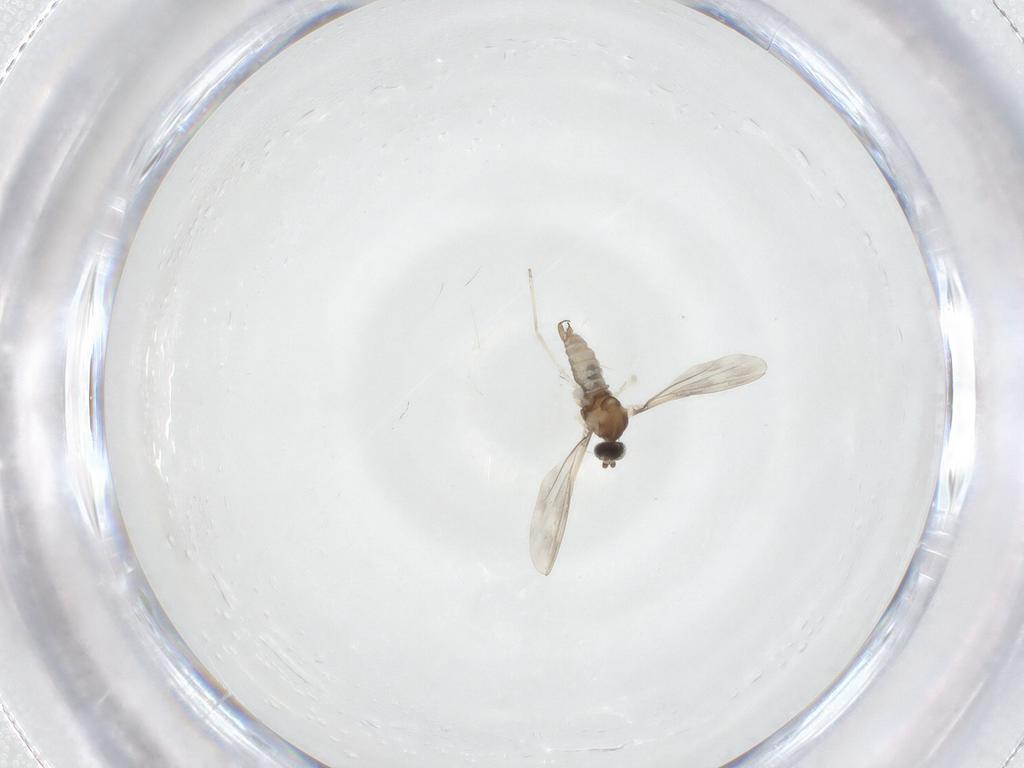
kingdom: Animalia
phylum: Arthropoda
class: Insecta
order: Diptera
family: Cecidomyiidae
